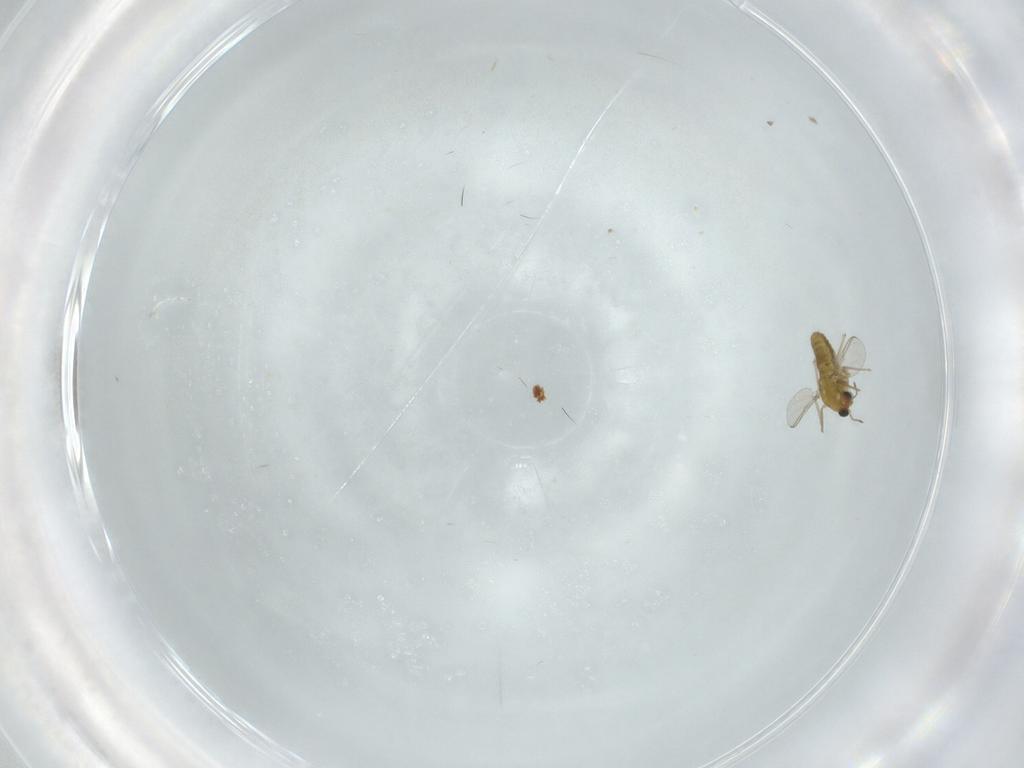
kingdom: Animalia
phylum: Arthropoda
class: Insecta
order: Diptera
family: Chironomidae
